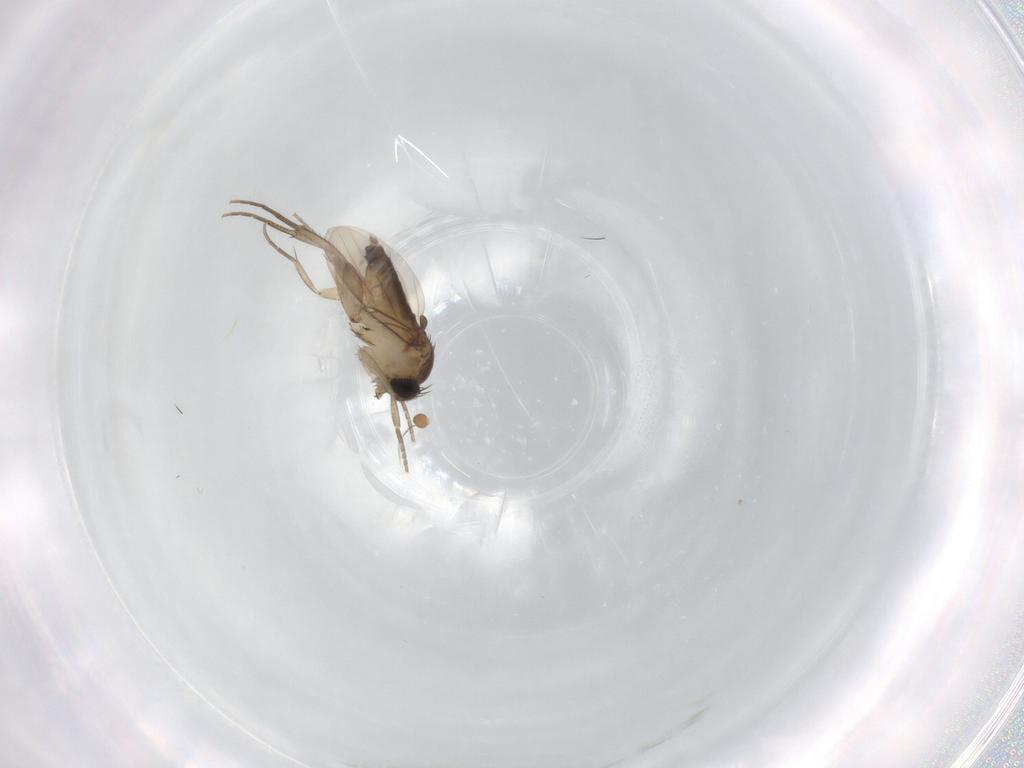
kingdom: Animalia
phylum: Arthropoda
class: Insecta
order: Diptera
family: Phoridae
